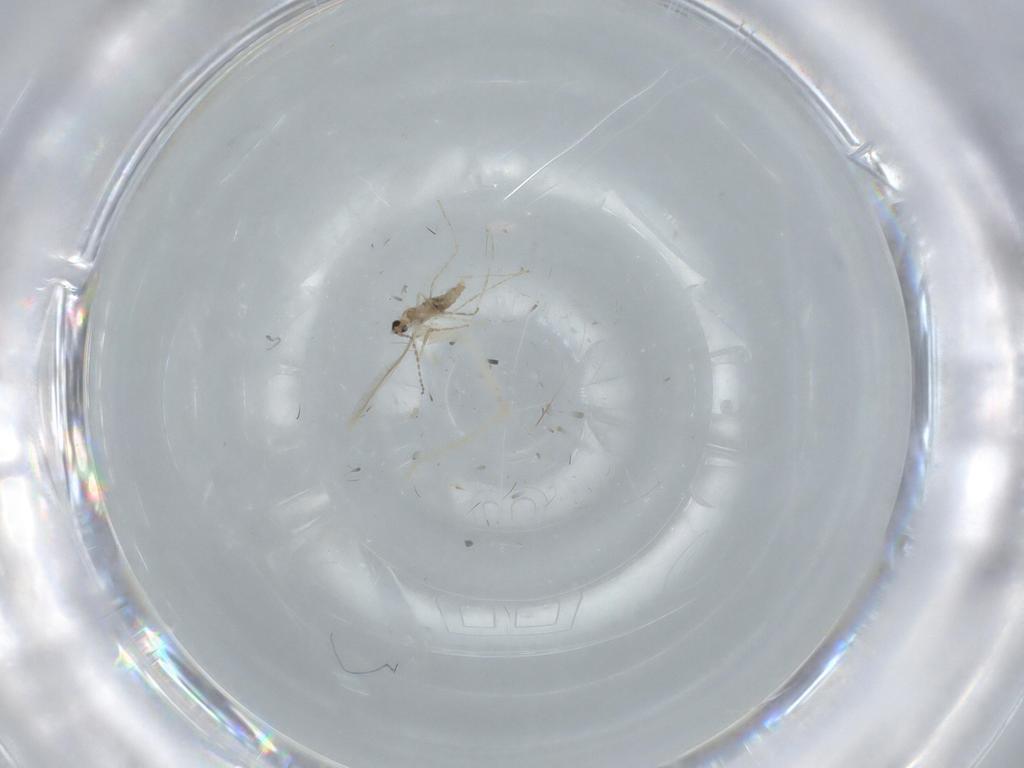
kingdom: Animalia
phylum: Arthropoda
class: Insecta
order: Diptera
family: Cecidomyiidae
